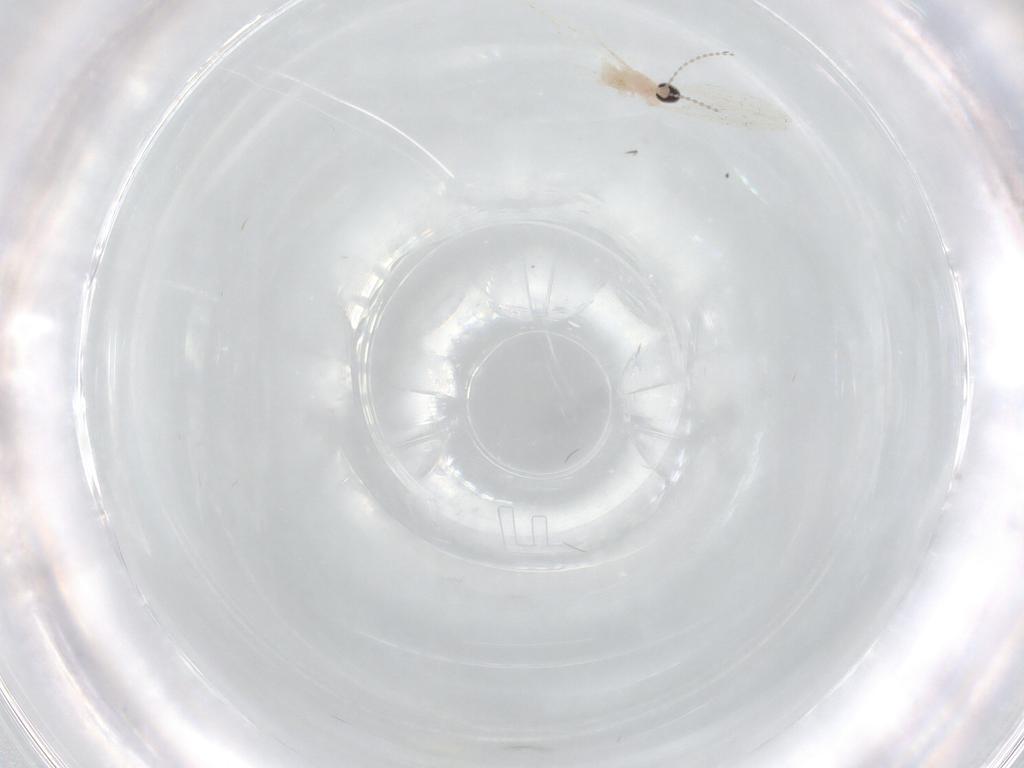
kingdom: Animalia
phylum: Arthropoda
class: Insecta
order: Diptera
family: Cecidomyiidae
